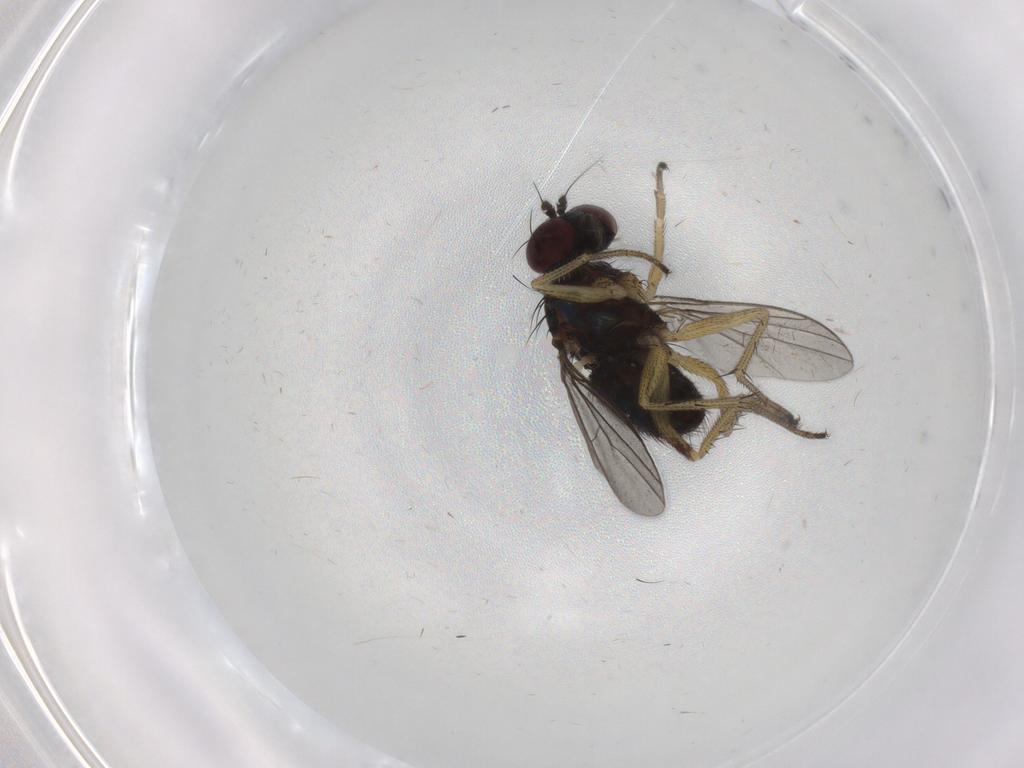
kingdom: Animalia
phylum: Arthropoda
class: Insecta
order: Diptera
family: Dolichopodidae
